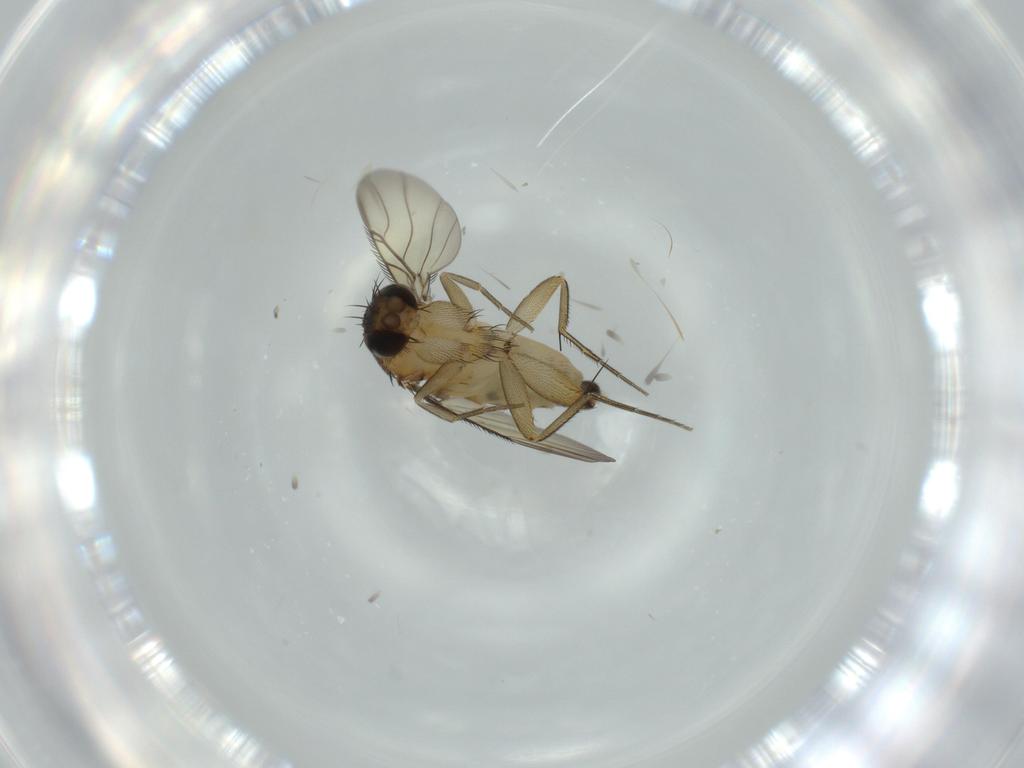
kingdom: Animalia
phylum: Arthropoda
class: Insecta
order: Diptera
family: Phoridae
